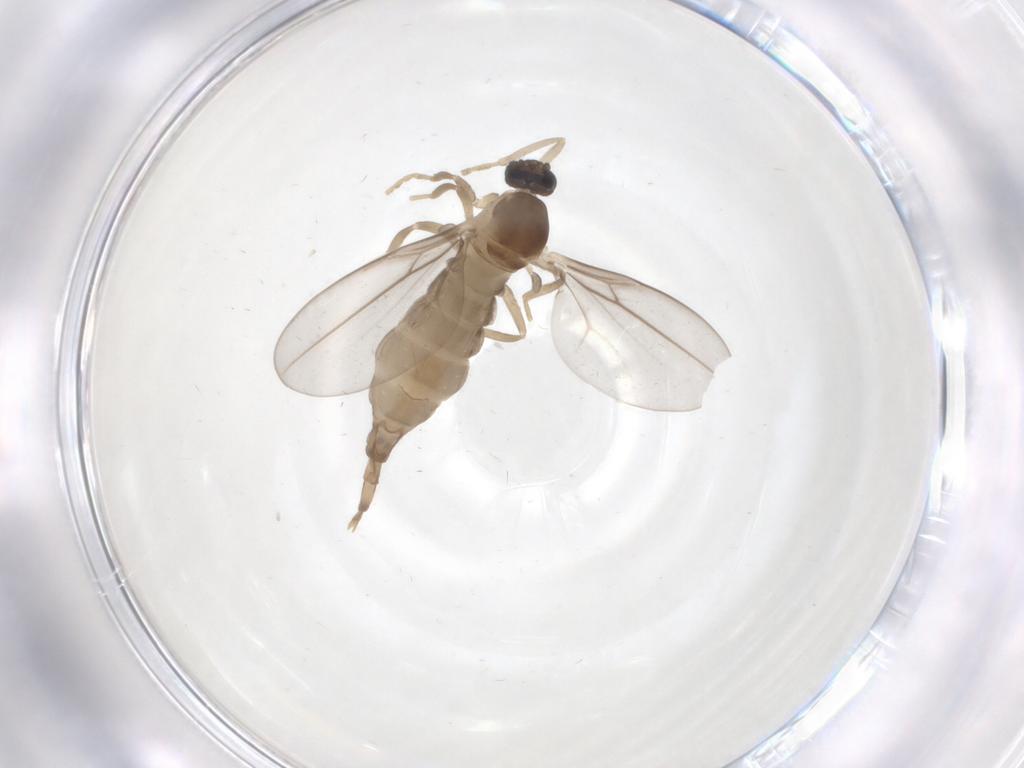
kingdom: Animalia
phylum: Arthropoda
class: Insecta
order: Diptera
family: Cecidomyiidae
